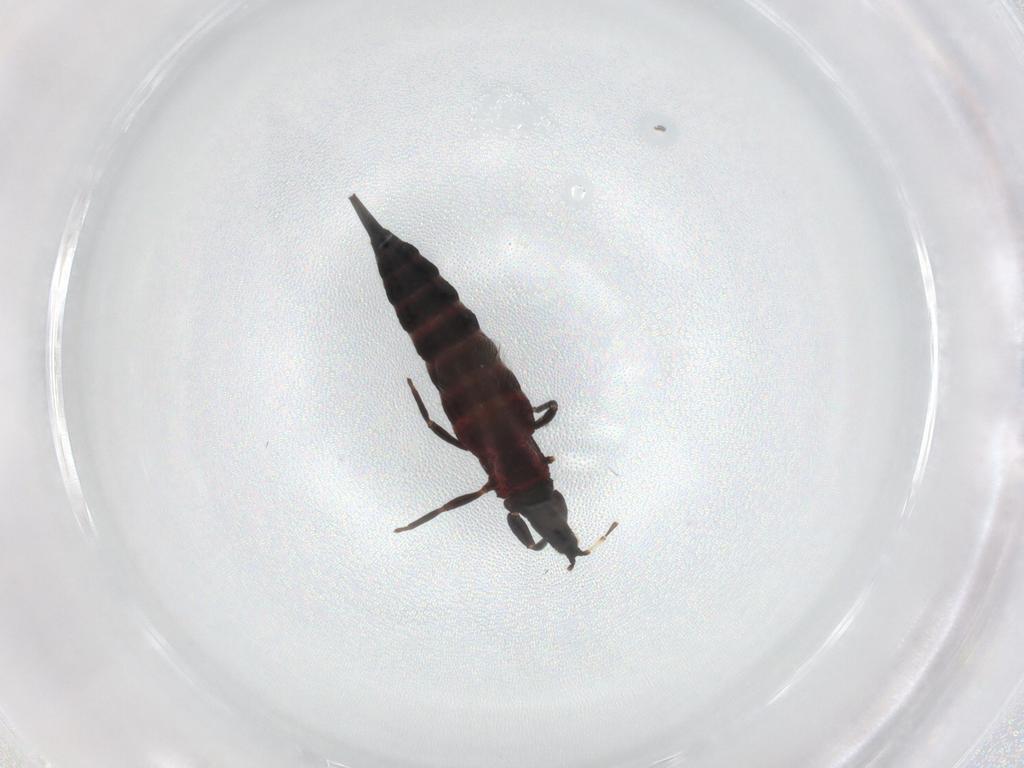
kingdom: Animalia
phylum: Arthropoda
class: Insecta
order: Thysanoptera
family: Phlaeothripidae
